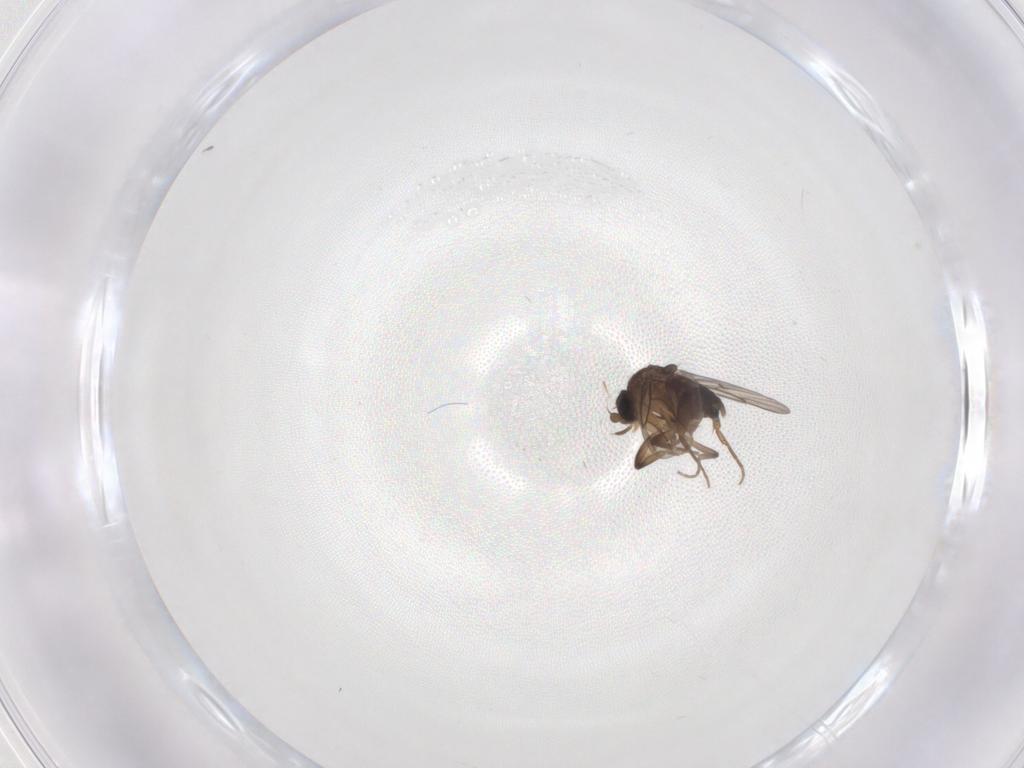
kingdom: Animalia
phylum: Arthropoda
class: Insecta
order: Diptera
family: Phoridae
